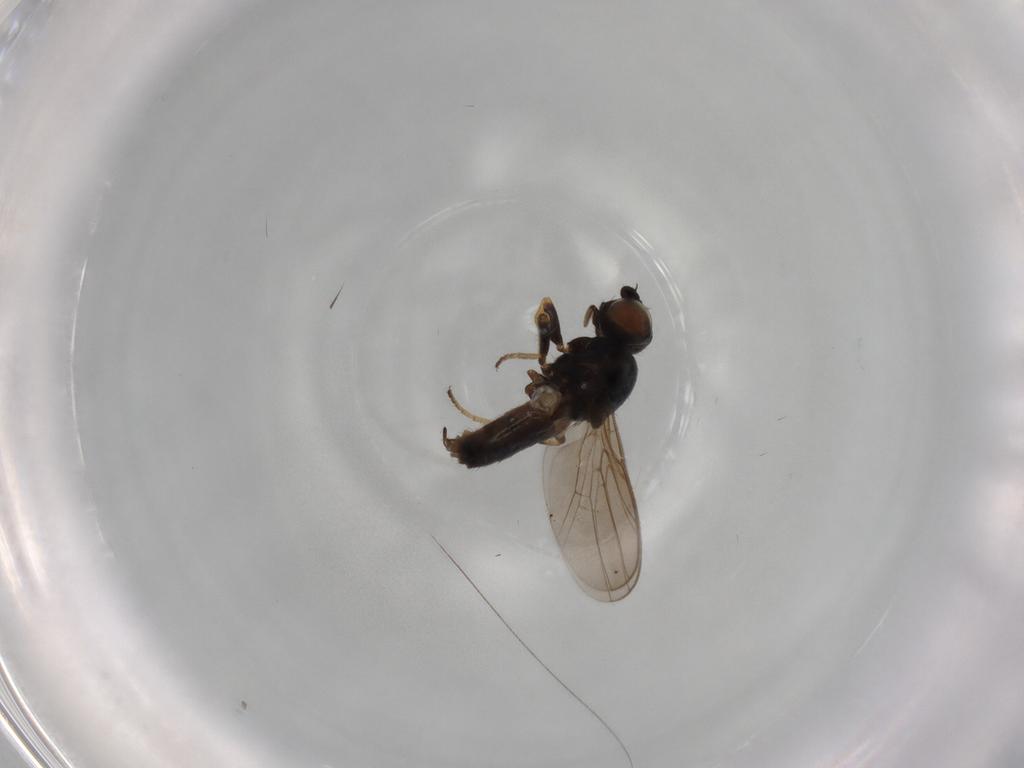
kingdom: Animalia
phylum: Arthropoda
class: Insecta
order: Diptera
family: Chloropidae
